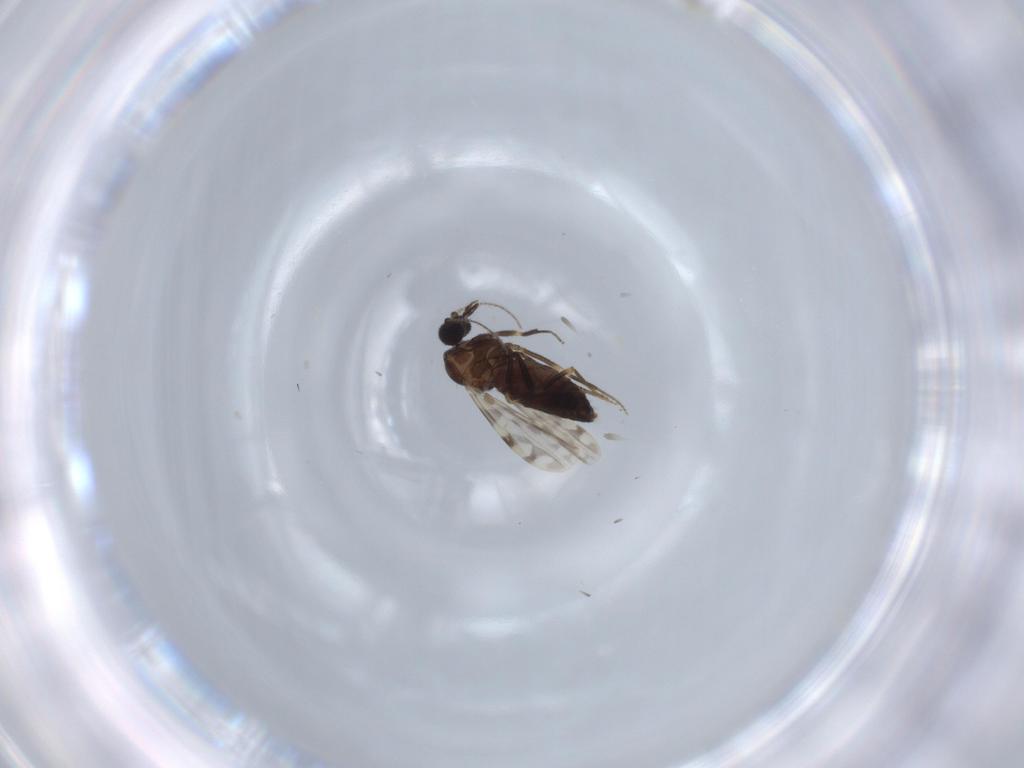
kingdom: Animalia
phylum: Arthropoda
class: Insecta
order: Diptera
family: Ceratopogonidae
